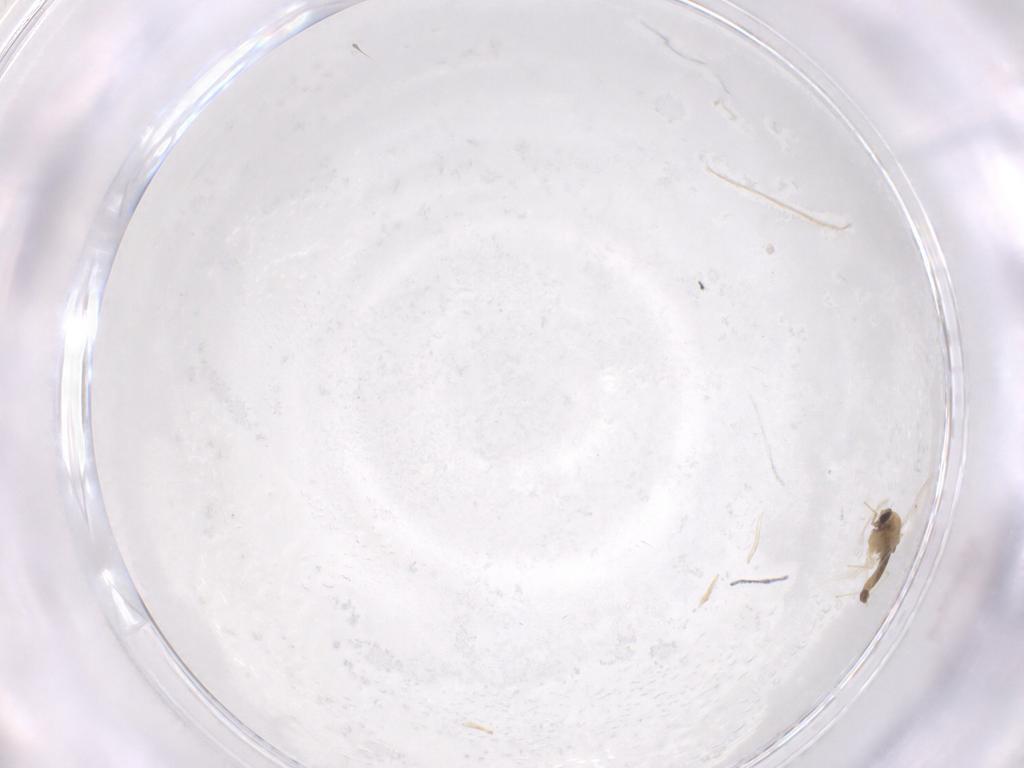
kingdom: Animalia
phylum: Arthropoda
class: Insecta
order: Diptera
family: Chironomidae
